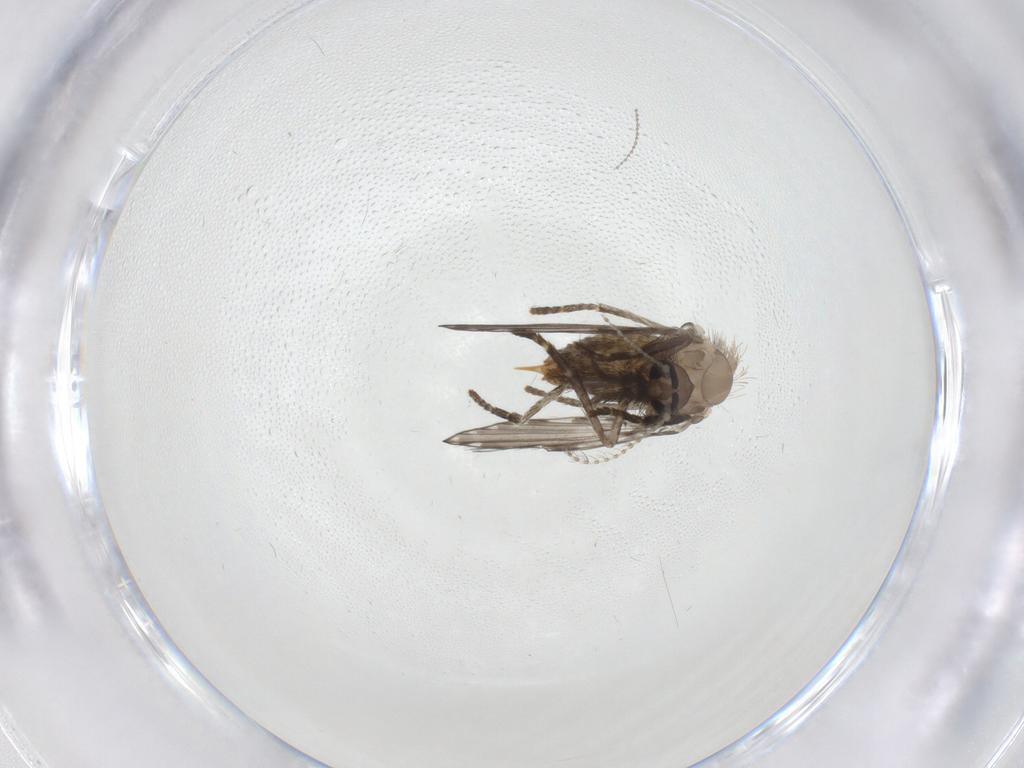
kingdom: Animalia
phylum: Arthropoda
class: Insecta
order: Diptera
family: Psychodidae
